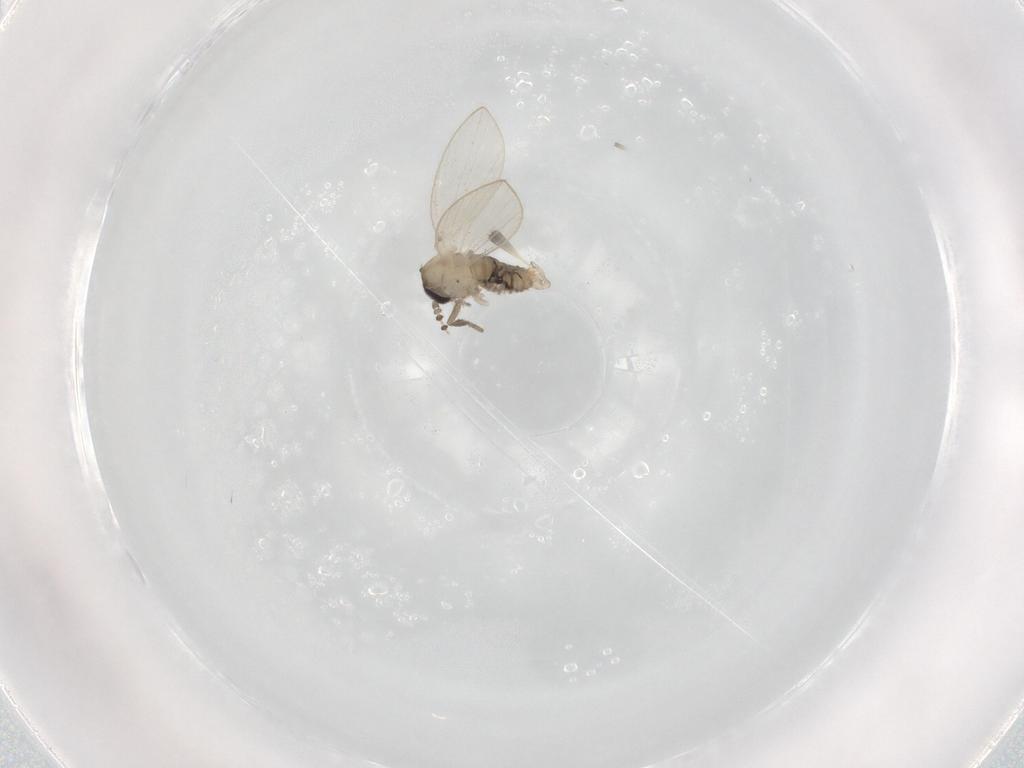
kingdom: Animalia
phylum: Arthropoda
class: Insecta
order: Diptera
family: Psychodidae
